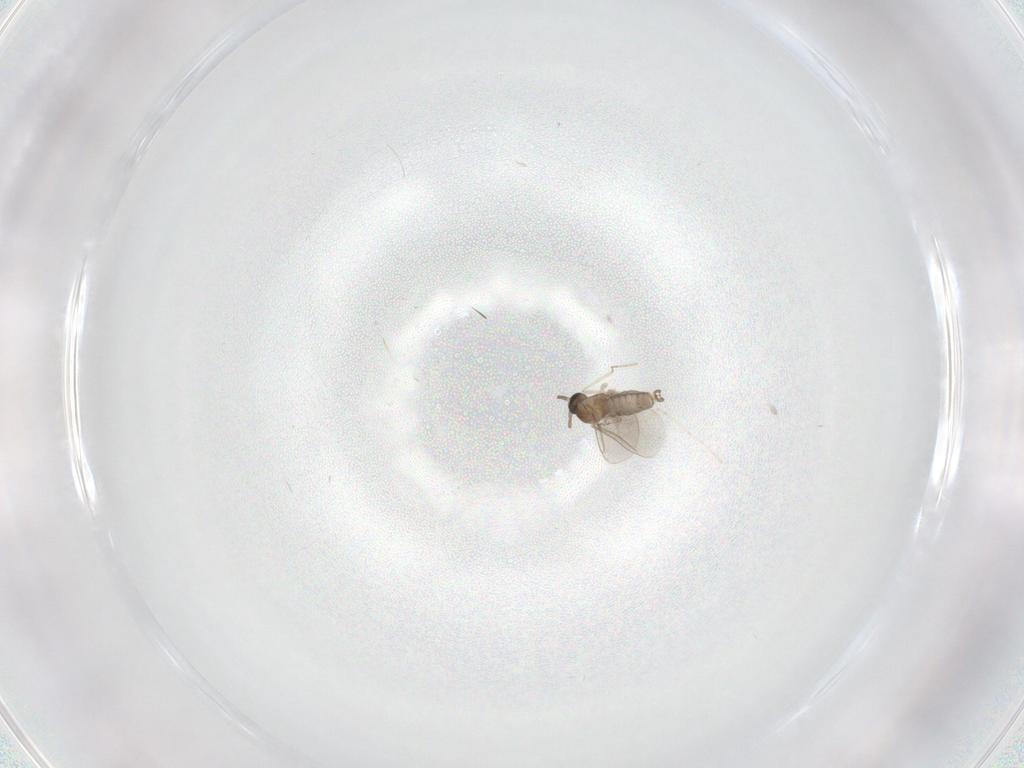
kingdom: Animalia
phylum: Arthropoda
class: Insecta
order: Diptera
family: Cecidomyiidae
